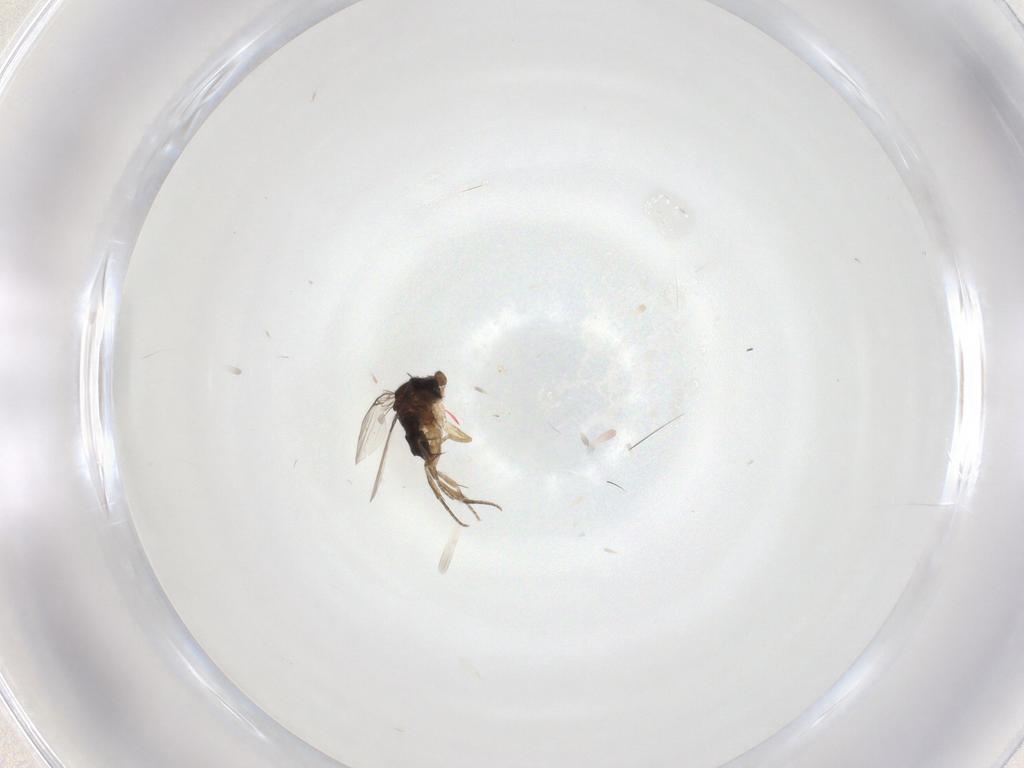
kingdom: Animalia
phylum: Arthropoda
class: Insecta
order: Diptera
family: Phoridae
